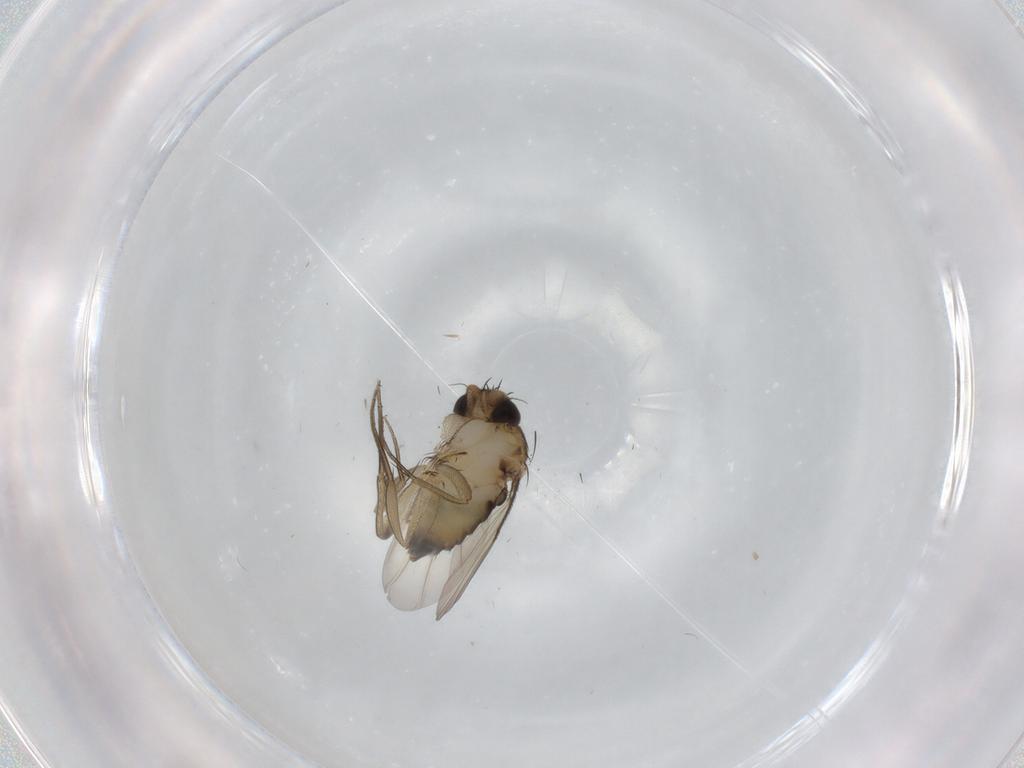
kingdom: Animalia
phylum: Arthropoda
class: Insecta
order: Diptera
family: Phoridae
